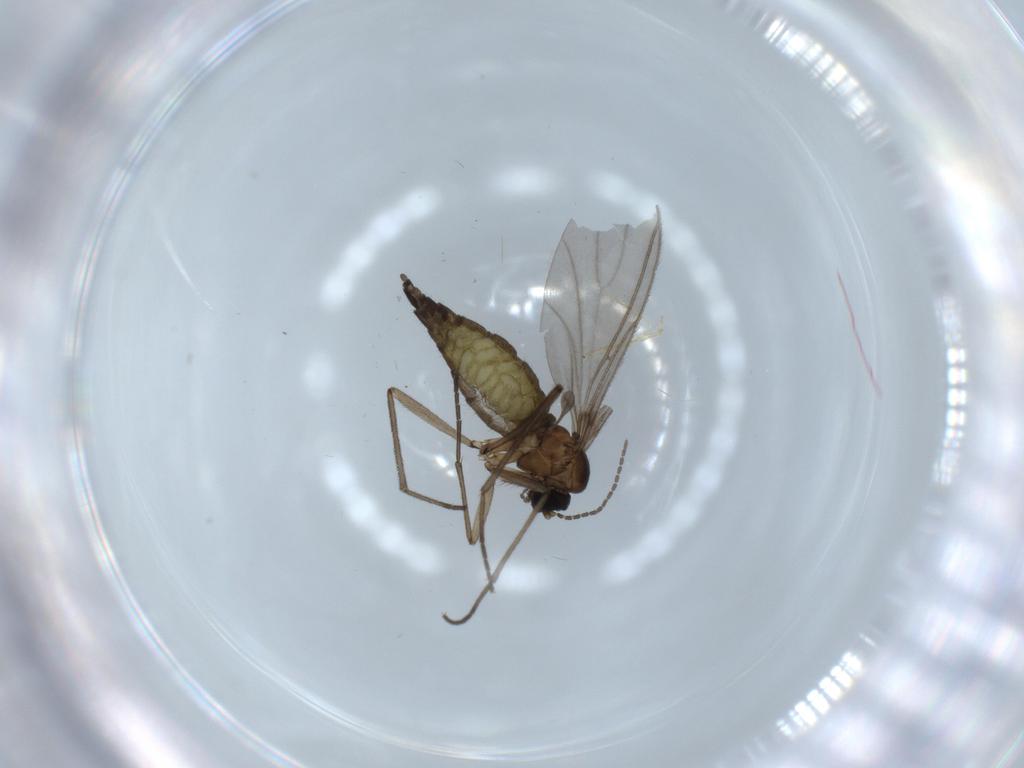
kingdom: Animalia
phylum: Arthropoda
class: Insecta
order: Diptera
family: Sciaridae
